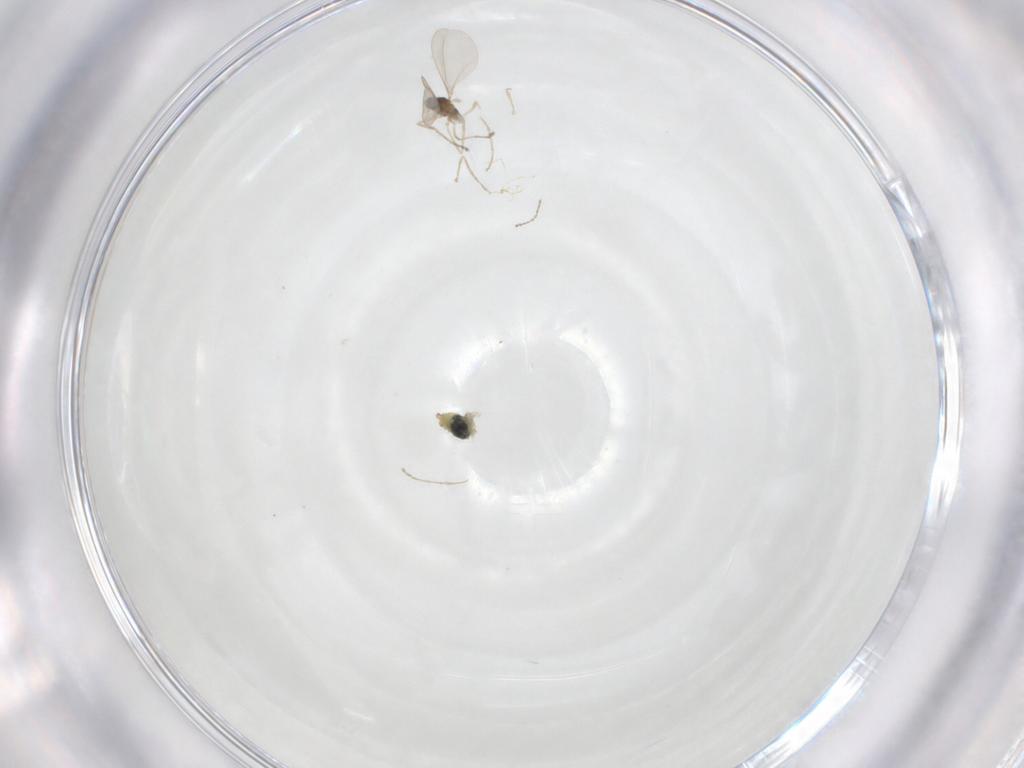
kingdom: Animalia
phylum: Arthropoda
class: Insecta
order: Diptera
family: Cecidomyiidae
